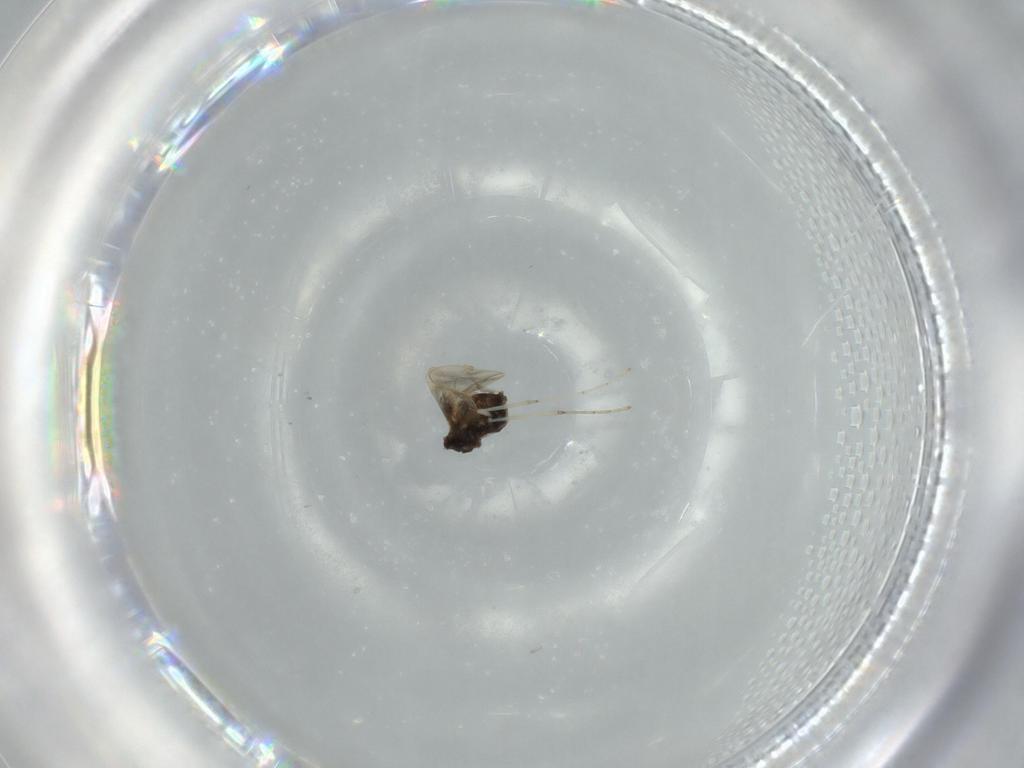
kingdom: Animalia
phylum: Arthropoda
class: Insecta
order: Diptera
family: Cecidomyiidae
